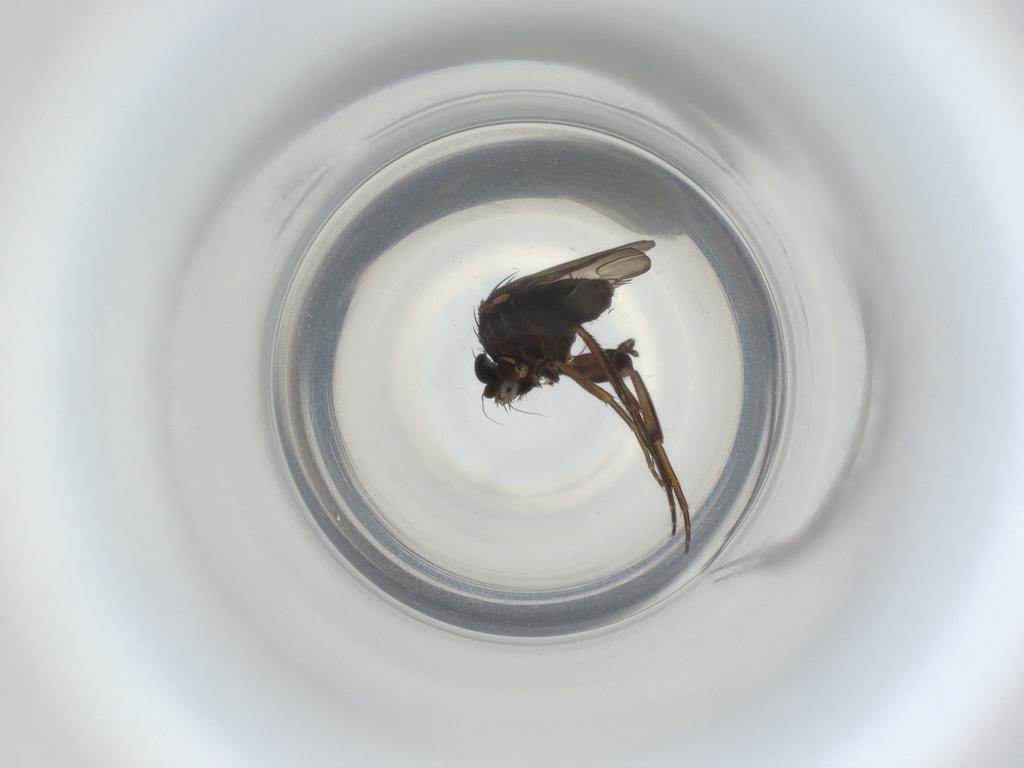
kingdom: Animalia
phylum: Arthropoda
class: Insecta
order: Diptera
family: Phoridae
